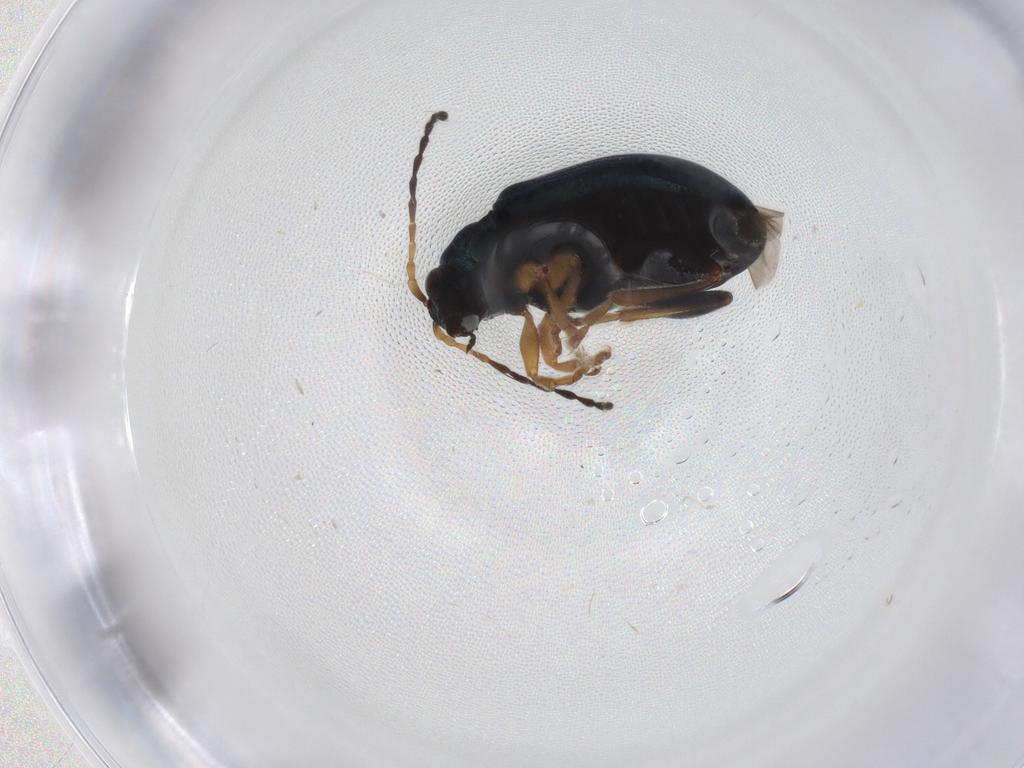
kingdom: Animalia
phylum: Arthropoda
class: Insecta
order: Coleoptera
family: Chrysomelidae
